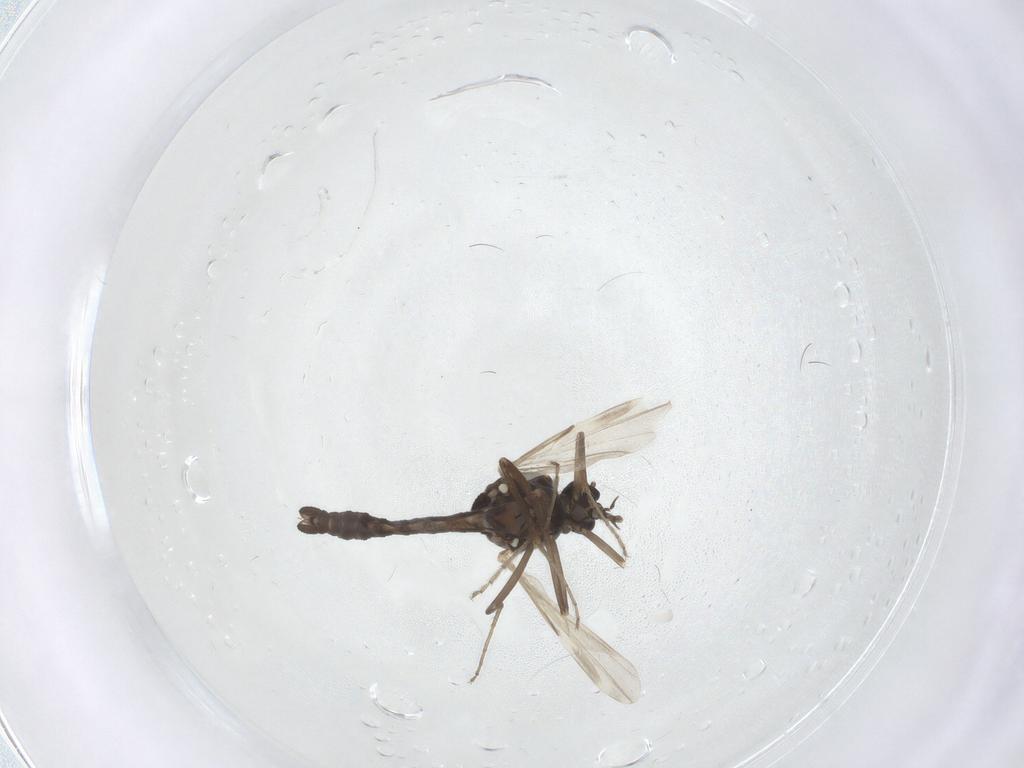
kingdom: Animalia
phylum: Arthropoda
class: Insecta
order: Diptera
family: Ceratopogonidae
